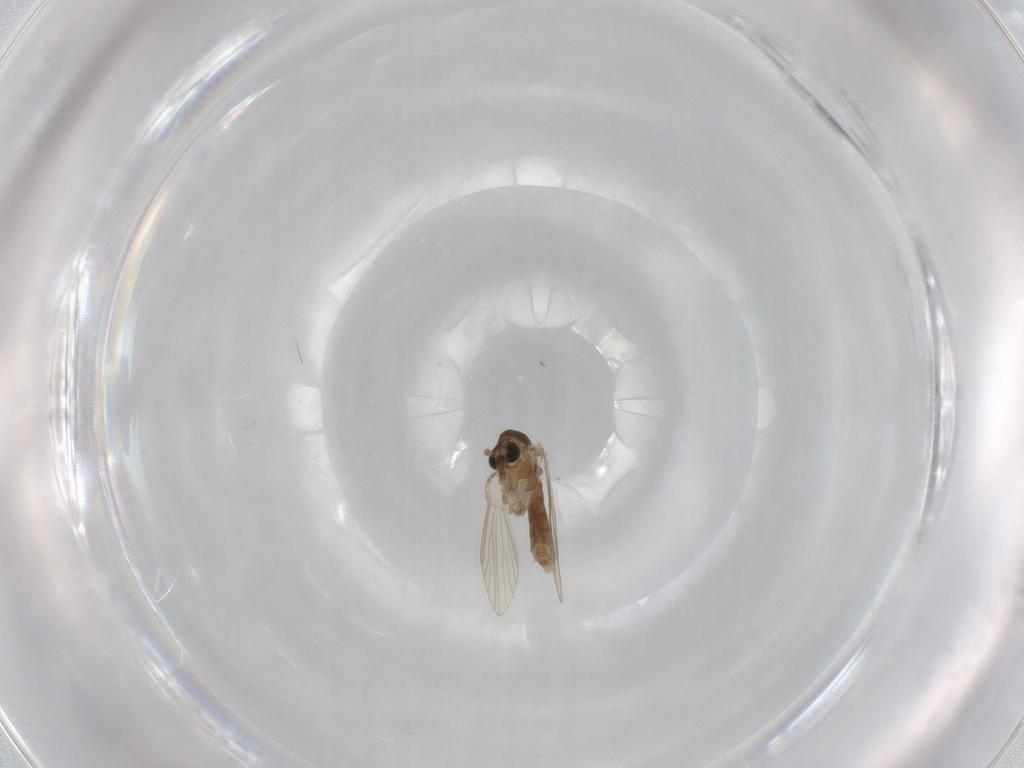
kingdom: Animalia
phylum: Arthropoda
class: Insecta
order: Diptera
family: Psychodidae
